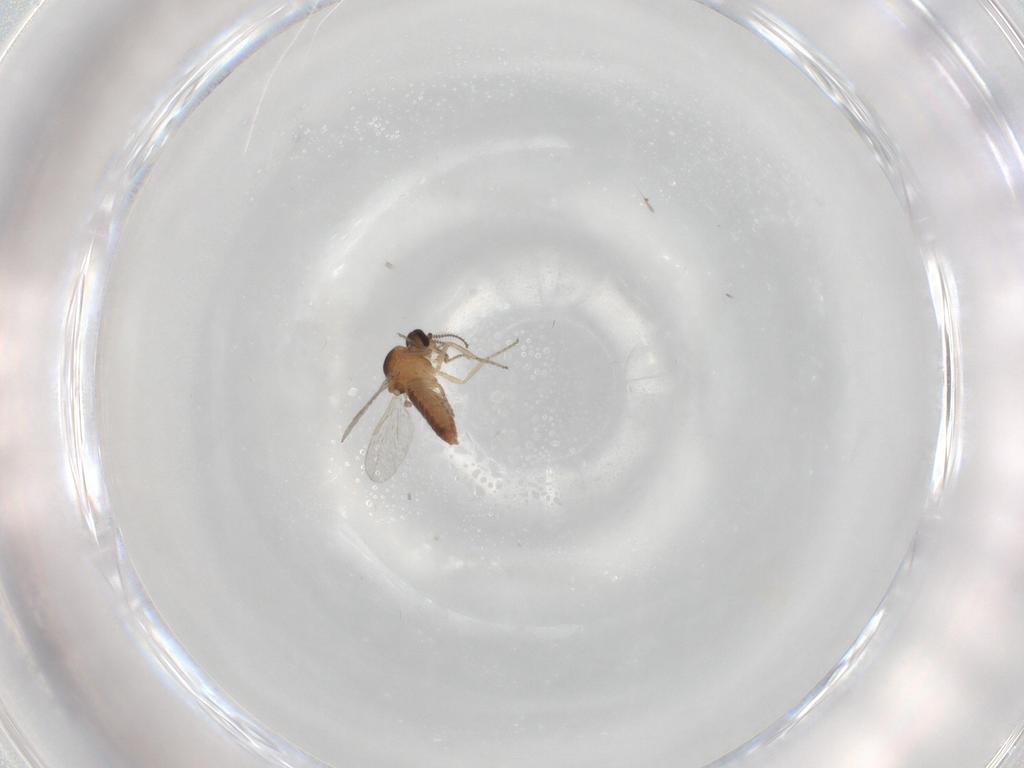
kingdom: Animalia
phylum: Arthropoda
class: Insecta
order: Diptera
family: Ceratopogonidae
